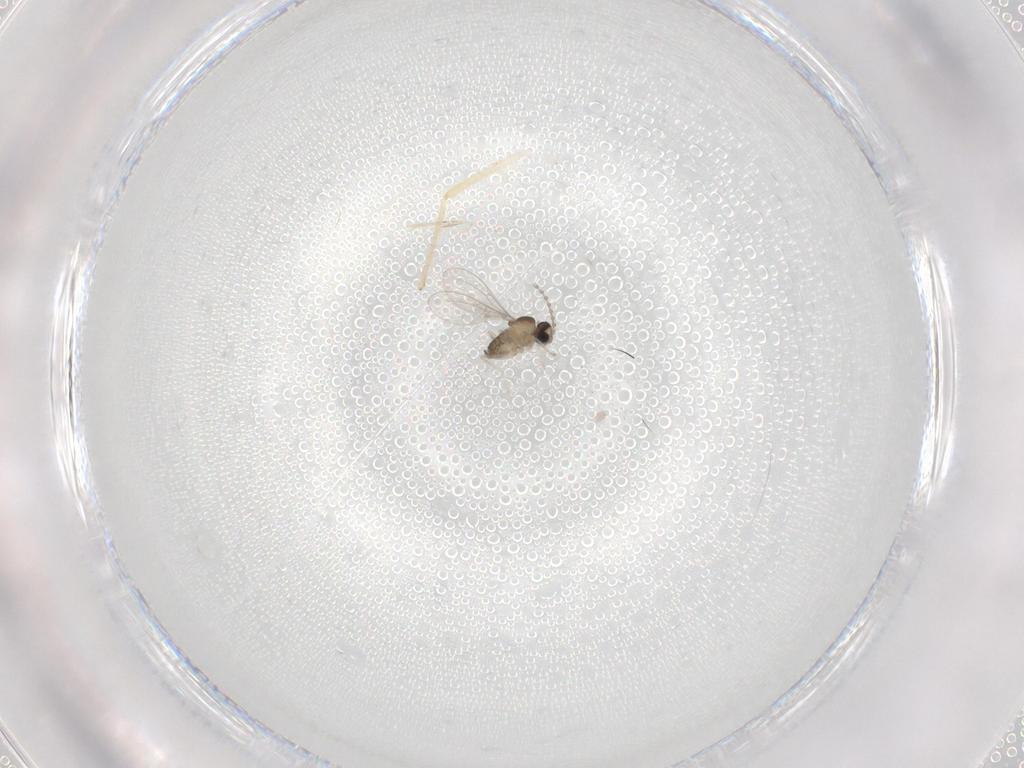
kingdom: Animalia
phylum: Arthropoda
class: Insecta
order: Diptera
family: Cecidomyiidae
